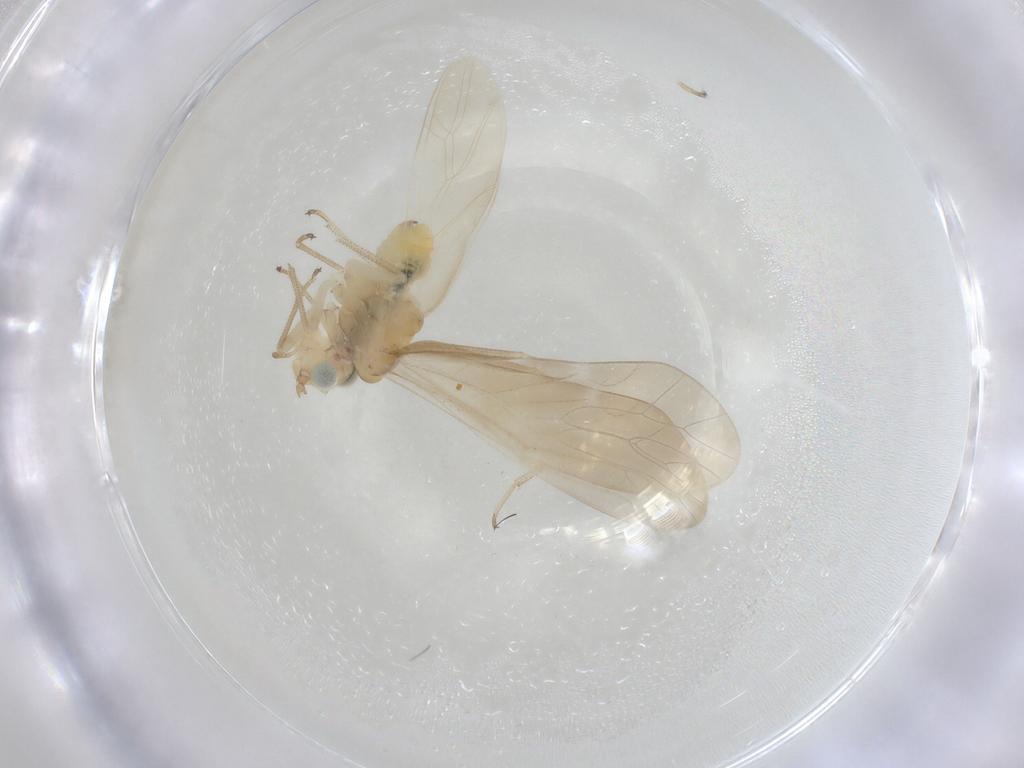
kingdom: Animalia
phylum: Arthropoda
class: Insecta
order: Psocodea
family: Caeciliusidae
